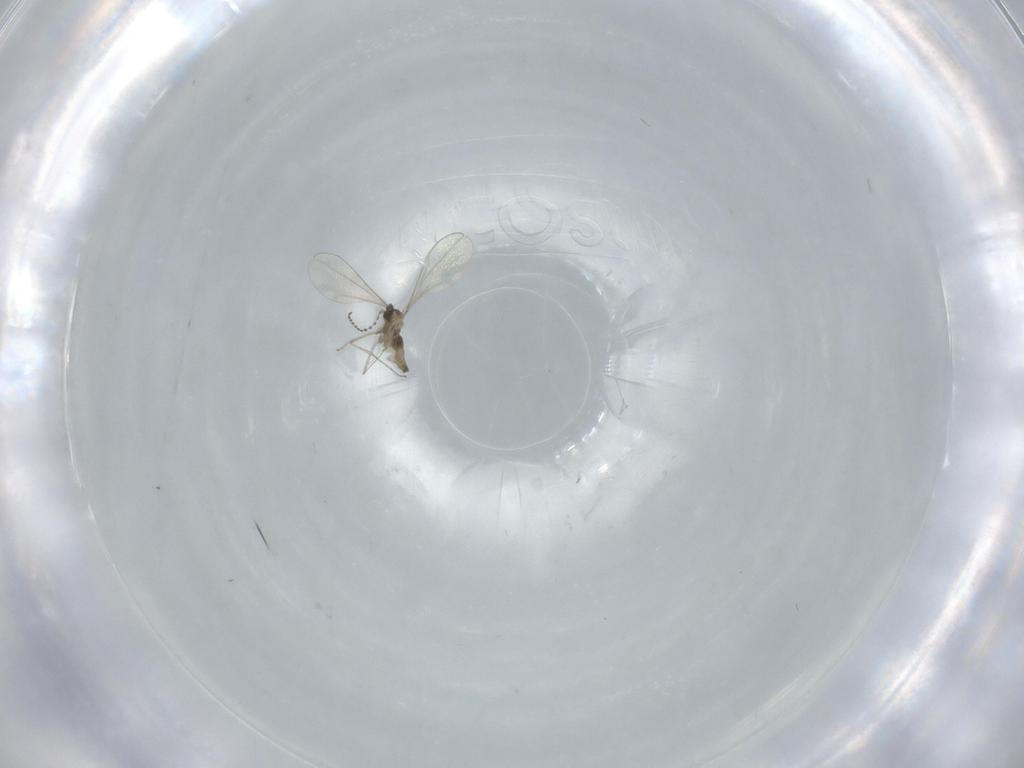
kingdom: Animalia
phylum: Arthropoda
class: Insecta
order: Diptera
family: Cecidomyiidae
